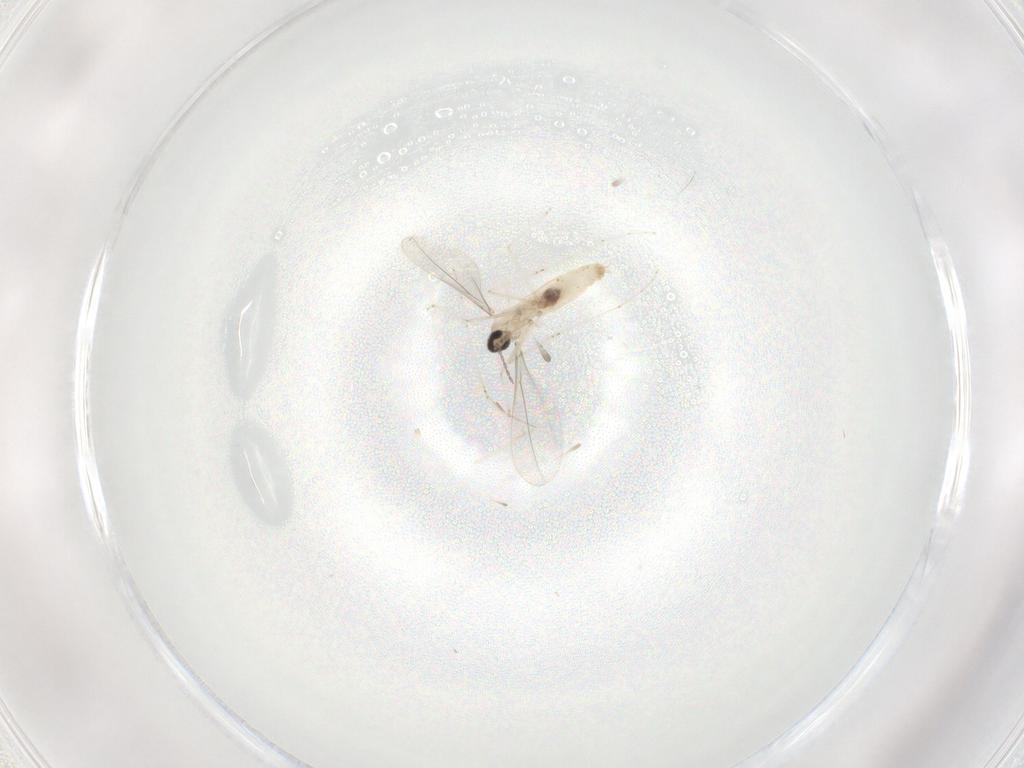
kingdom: Animalia
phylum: Arthropoda
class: Insecta
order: Diptera
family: Cecidomyiidae
